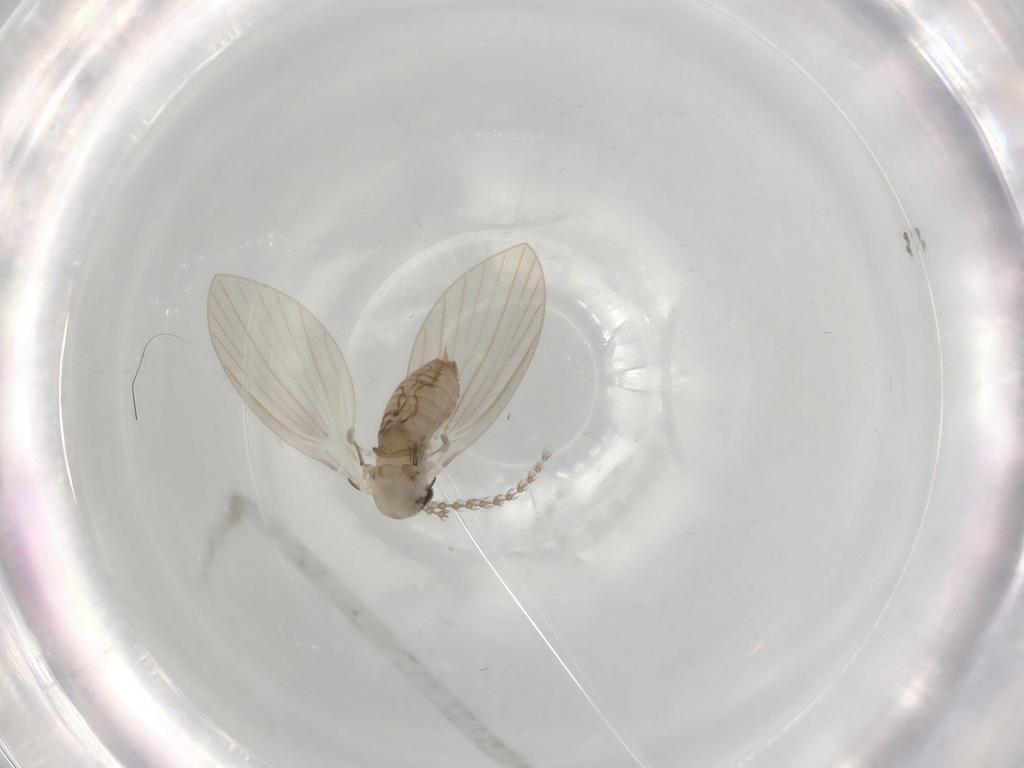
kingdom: Animalia
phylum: Arthropoda
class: Insecta
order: Diptera
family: Psychodidae
